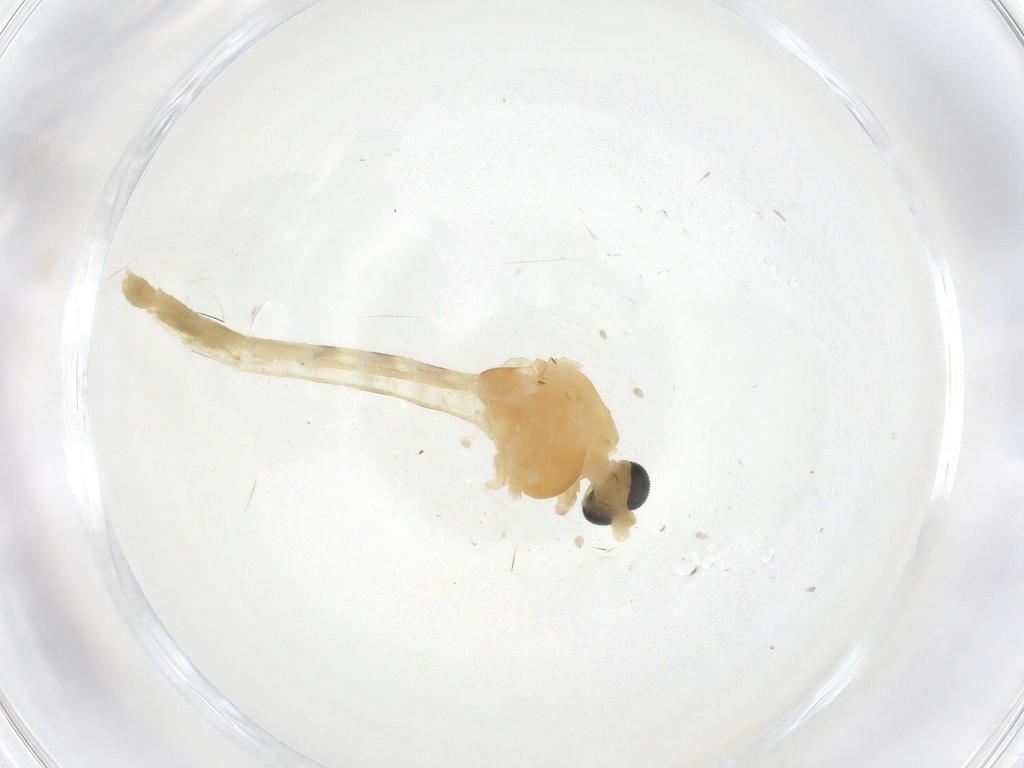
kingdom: Animalia
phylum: Arthropoda
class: Insecta
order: Diptera
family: Chironomidae
